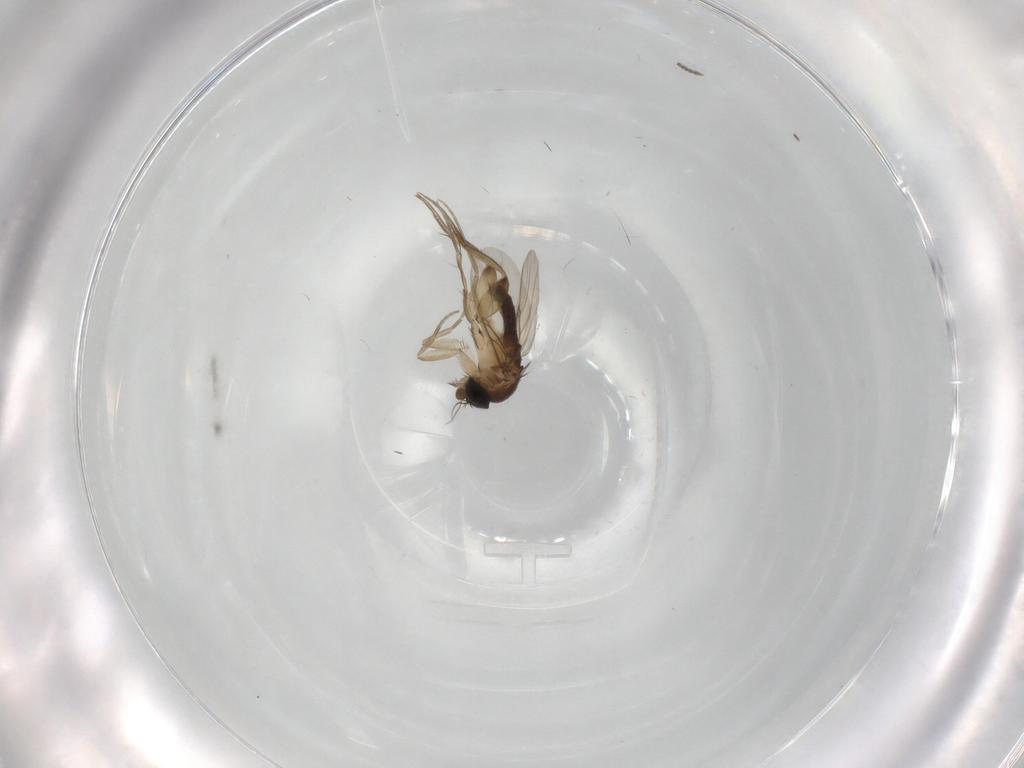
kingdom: Animalia
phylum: Arthropoda
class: Insecta
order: Diptera
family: Phoridae
